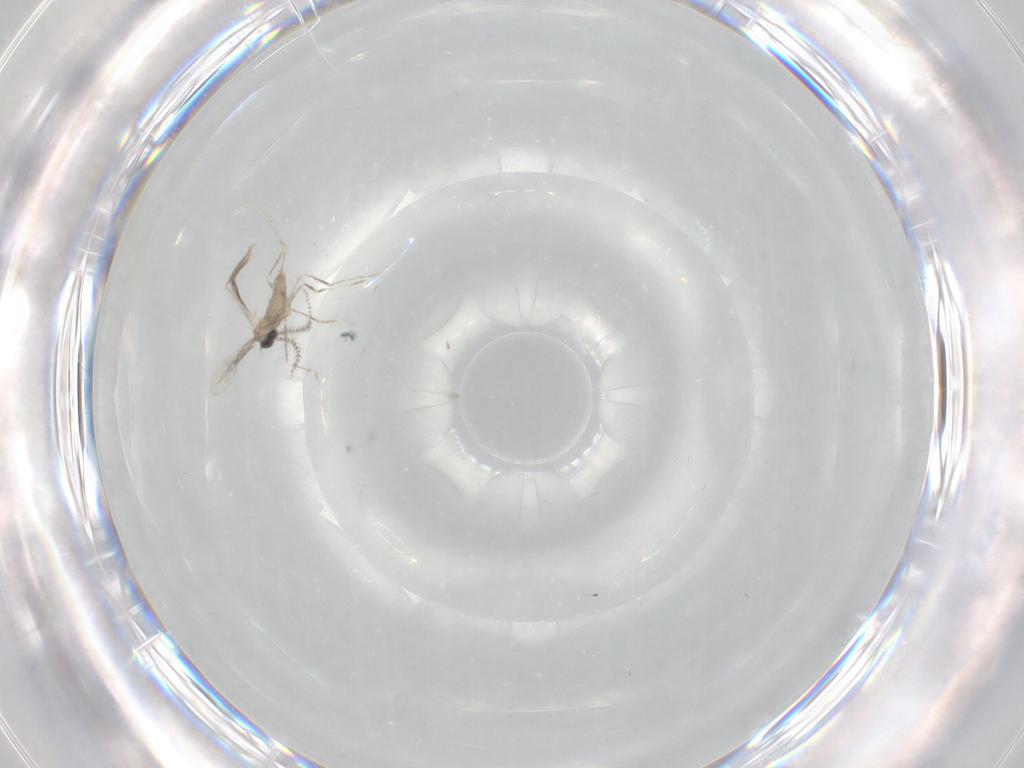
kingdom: Animalia
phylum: Arthropoda
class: Insecta
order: Diptera
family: Cecidomyiidae
